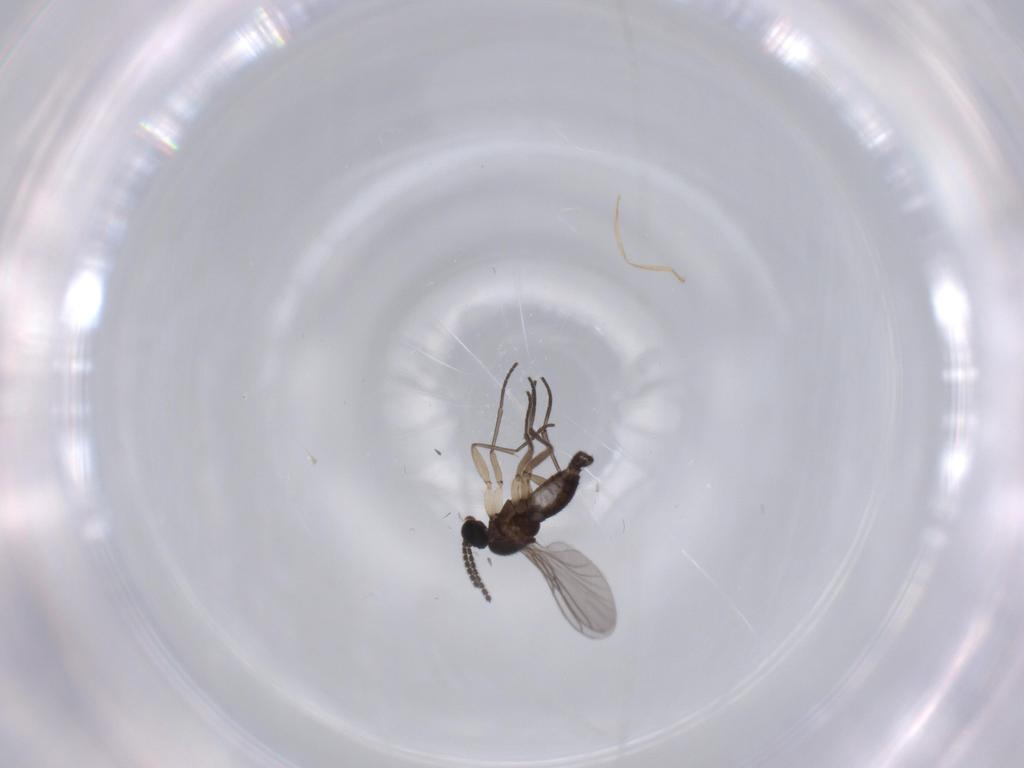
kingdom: Animalia
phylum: Arthropoda
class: Insecta
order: Diptera
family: Sciaridae
